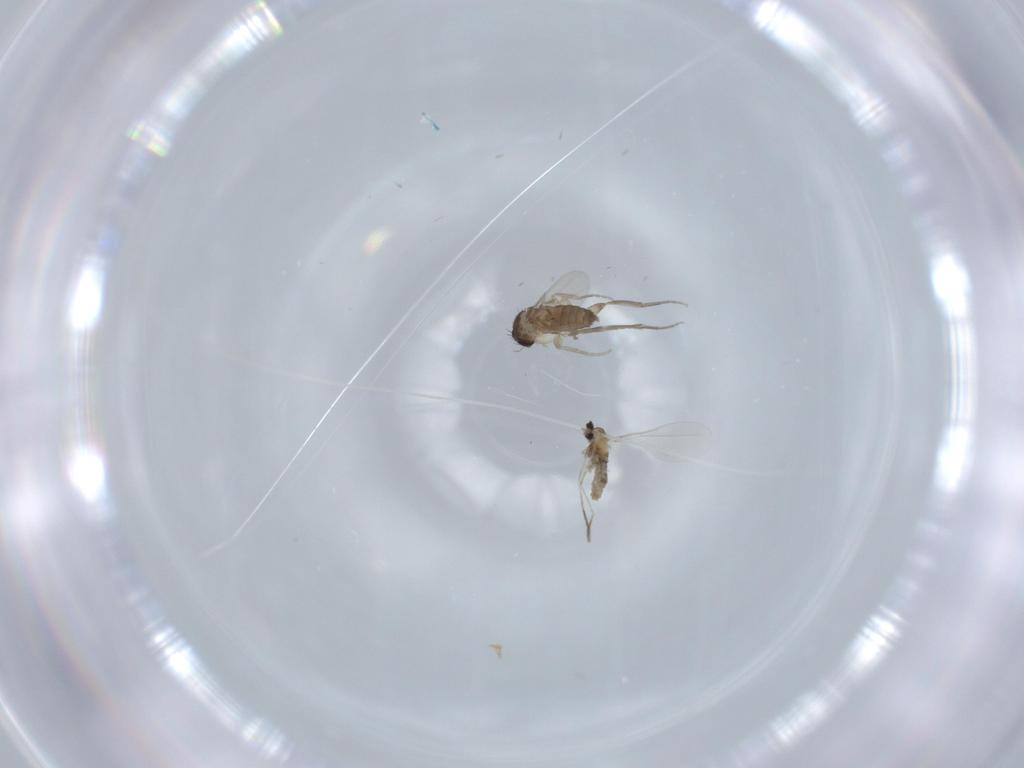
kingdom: Animalia
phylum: Arthropoda
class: Insecta
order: Diptera
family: Phoridae
